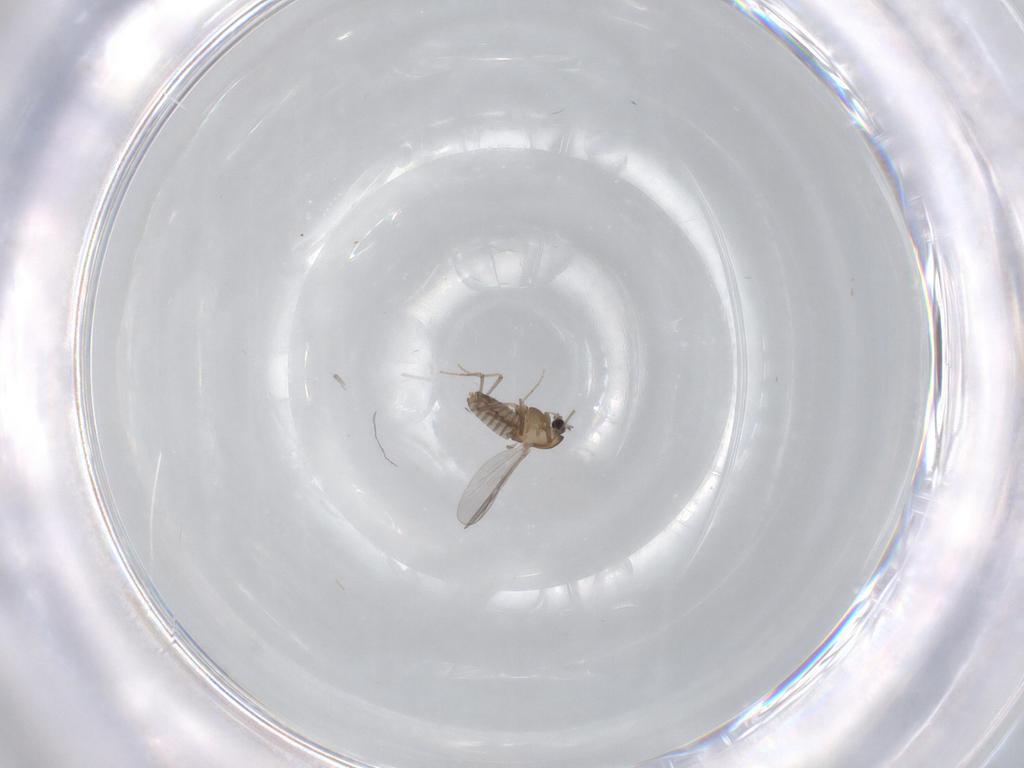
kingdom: Animalia
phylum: Arthropoda
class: Insecta
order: Diptera
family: Chironomidae
